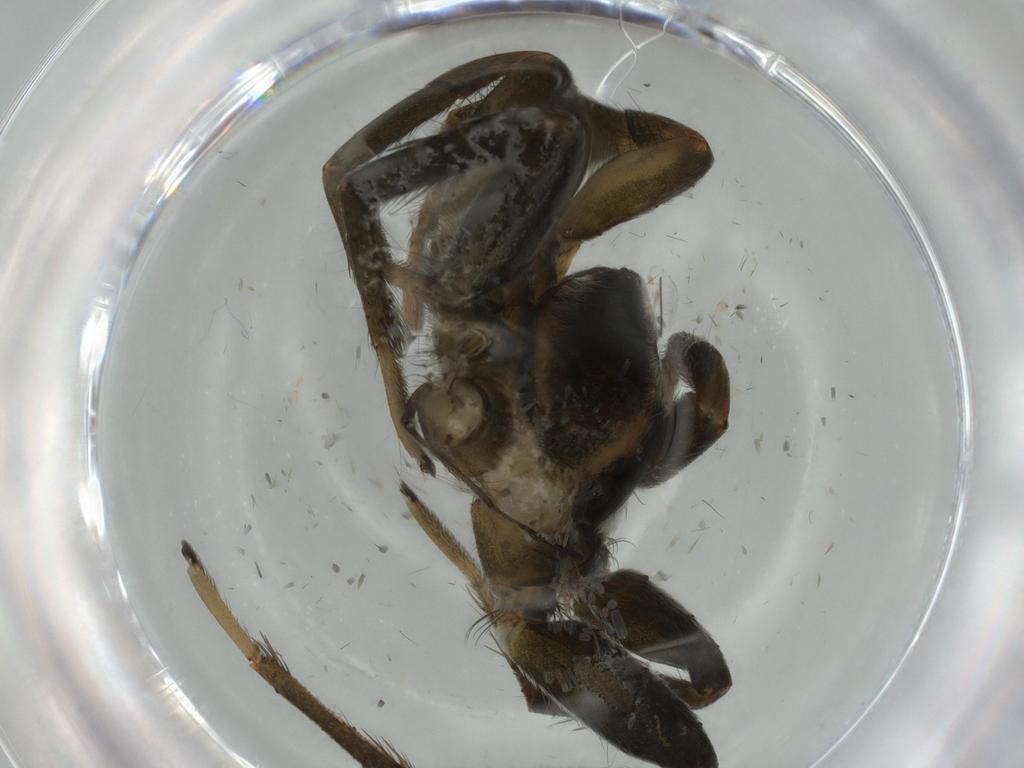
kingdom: Animalia
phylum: Arthropoda
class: Arachnida
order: Araneae
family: Gnaphosidae
